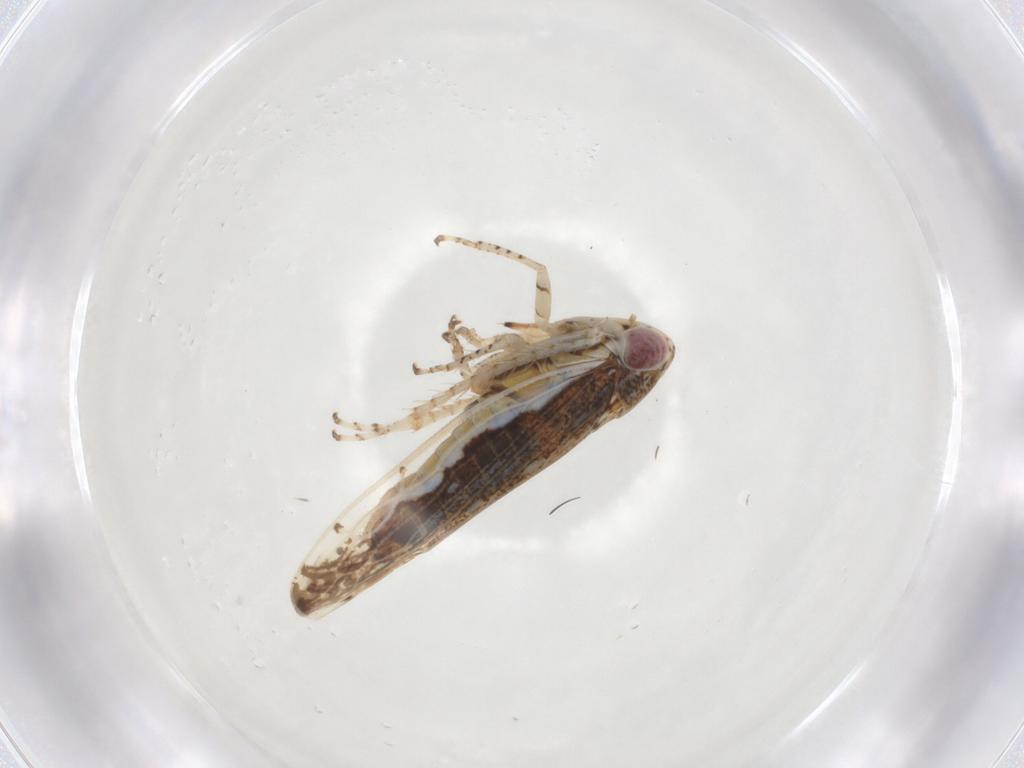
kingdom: Animalia
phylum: Arthropoda
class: Insecta
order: Hemiptera
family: Cicadellidae
